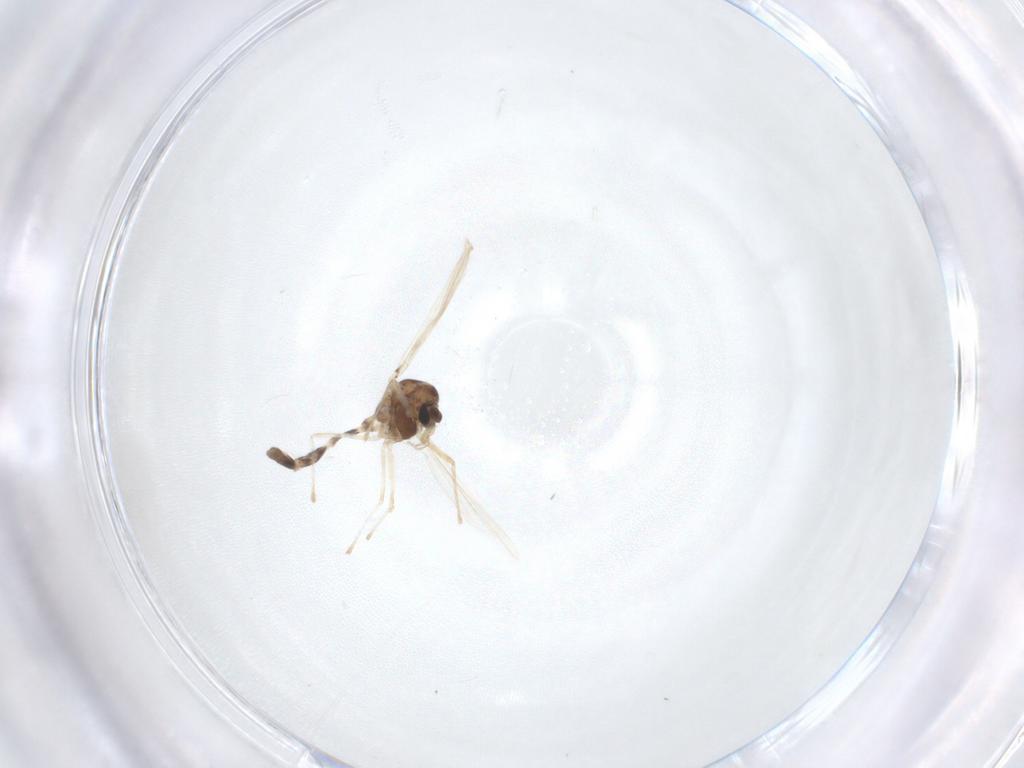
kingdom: Animalia
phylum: Arthropoda
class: Insecta
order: Diptera
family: Chironomidae
